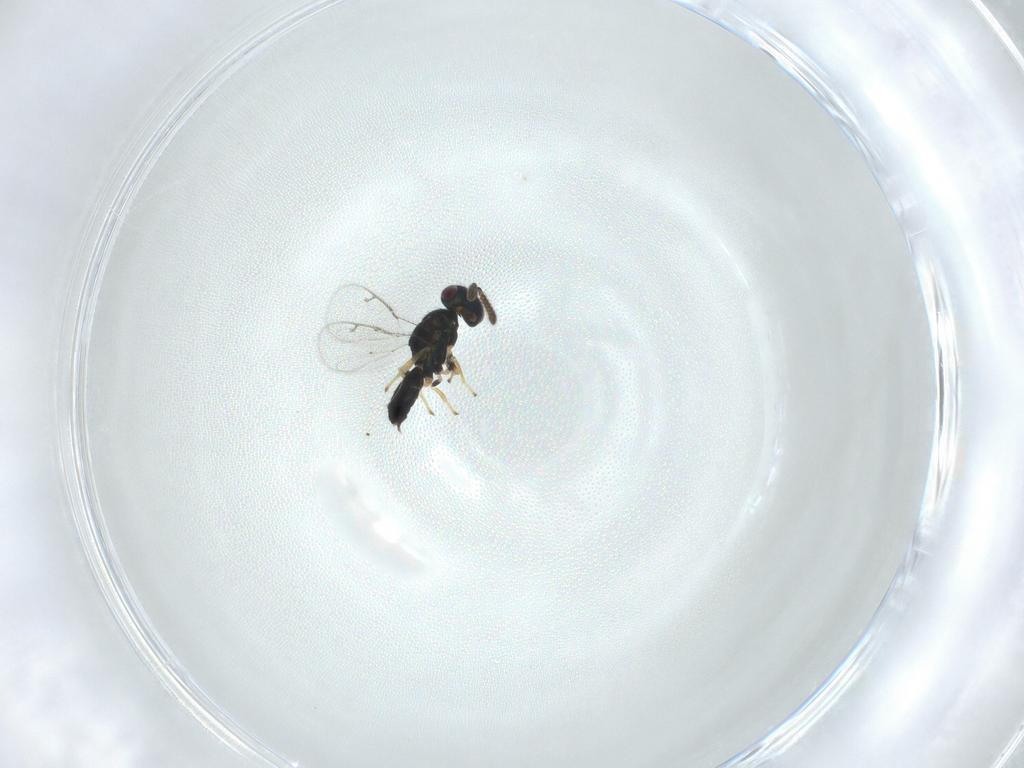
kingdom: Animalia
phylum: Arthropoda
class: Insecta
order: Hymenoptera
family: Pteromalidae
